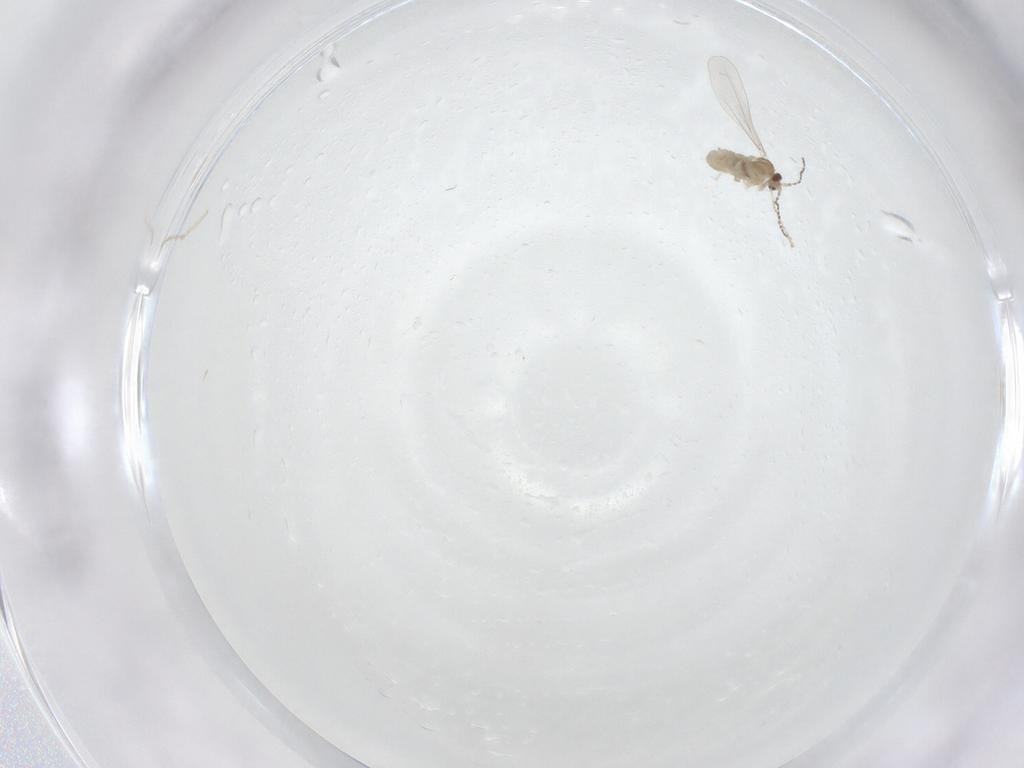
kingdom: Animalia
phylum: Arthropoda
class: Insecta
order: Diptera
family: Cecidomyiidae
